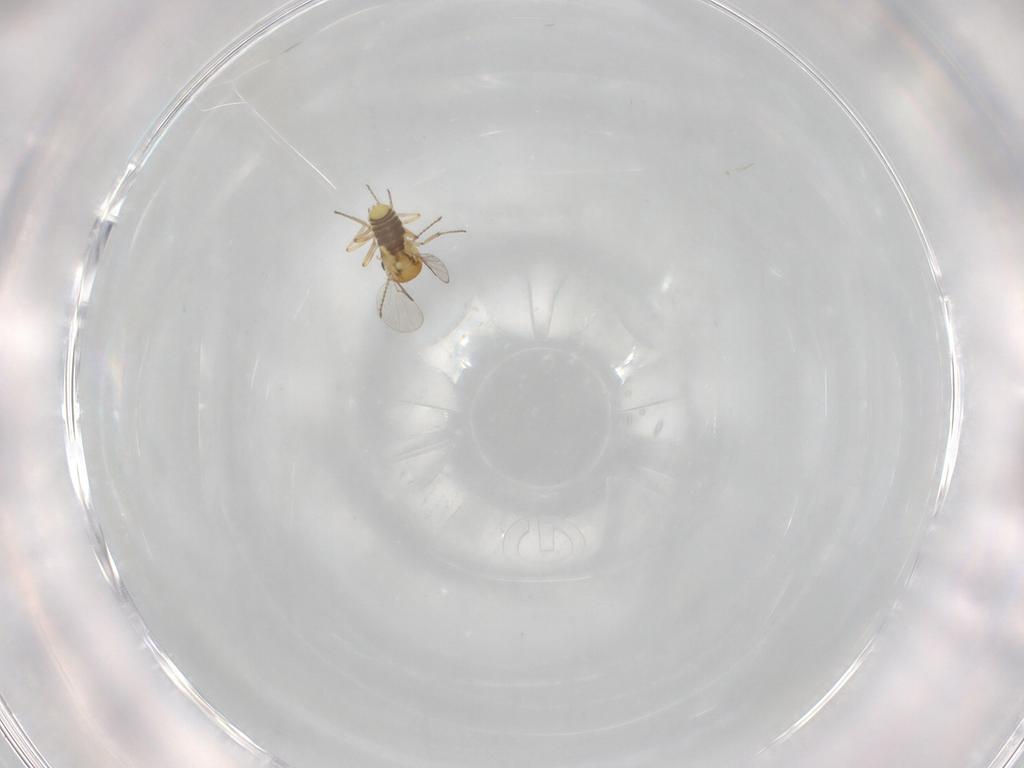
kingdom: Animalia
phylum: Arthropoda
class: Insecta
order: Diptera
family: Ceratopogonidae
